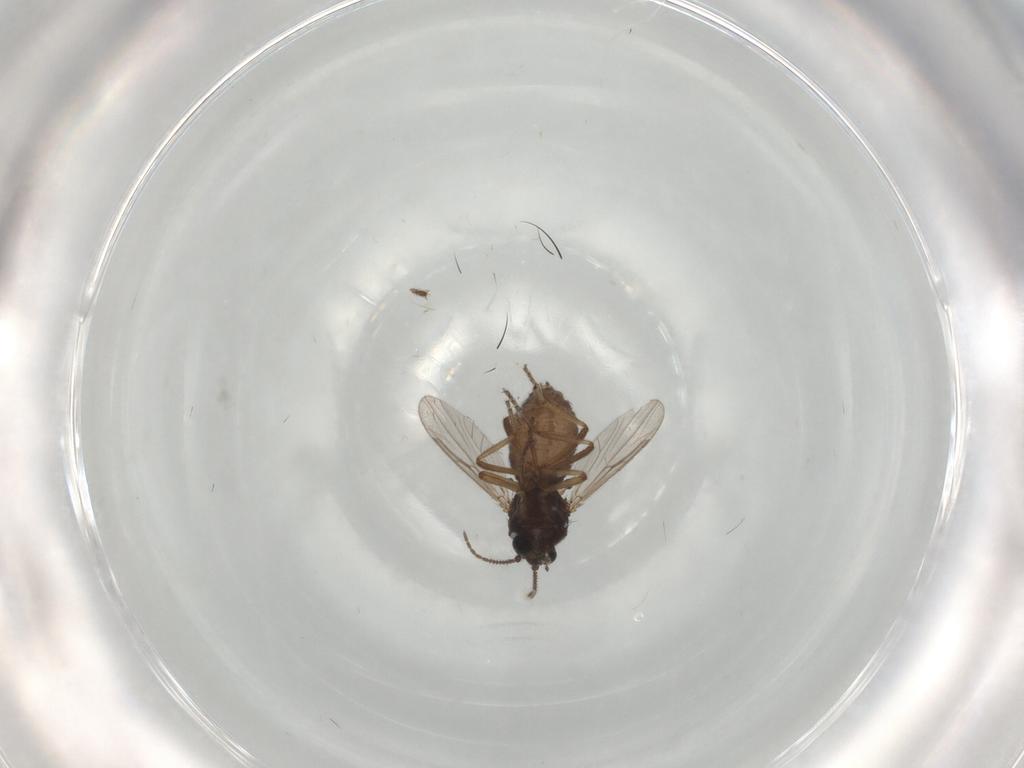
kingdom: Animalia
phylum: Arthropoda
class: Insecta
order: Diptera
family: Ceratopogonidae
